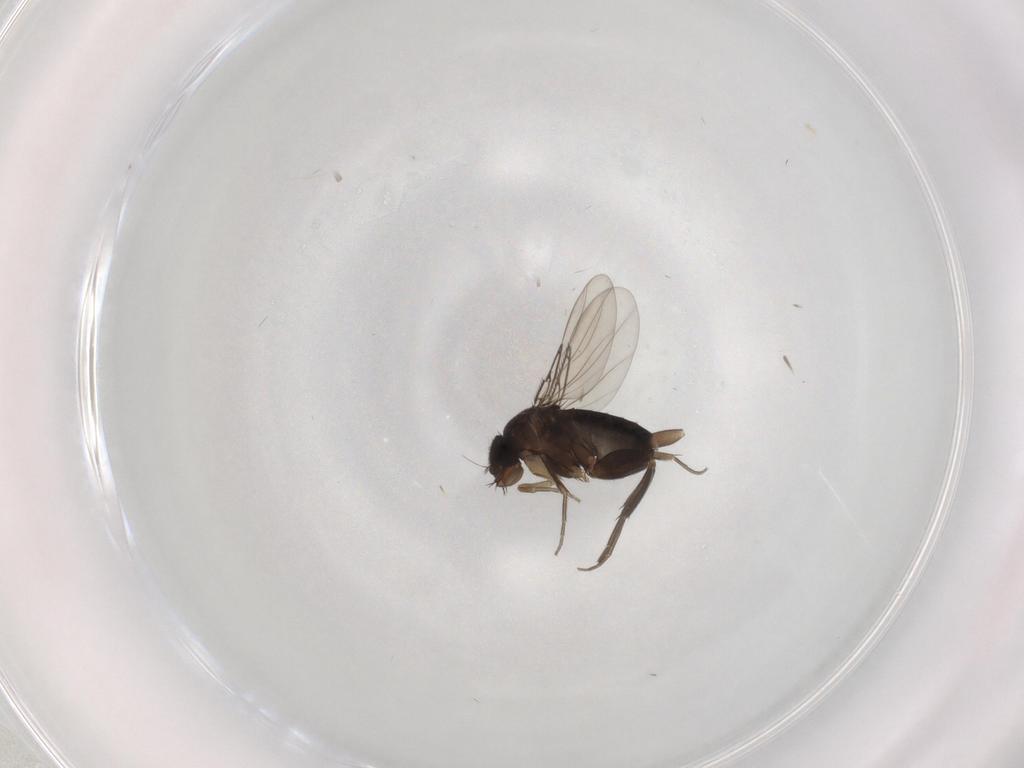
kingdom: Animalia
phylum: Arthropoda
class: Insecta
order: Diptera
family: Phoridae
